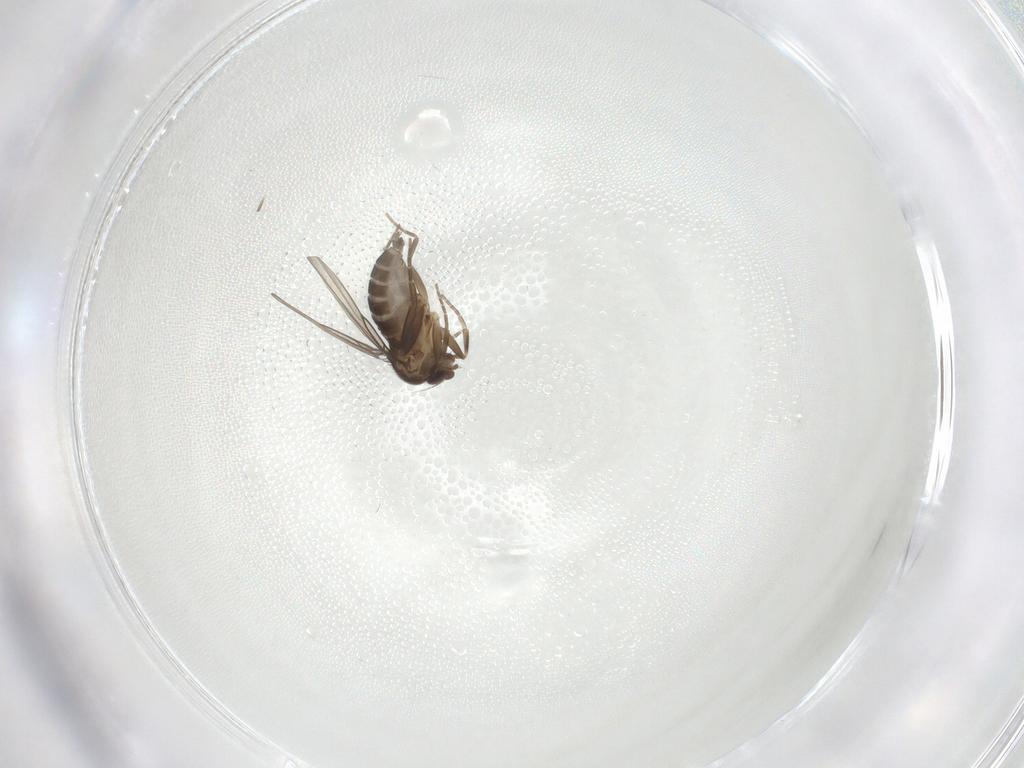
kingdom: Animalia
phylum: Arthropoda
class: Insecta
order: Diptera
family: Phoridae
